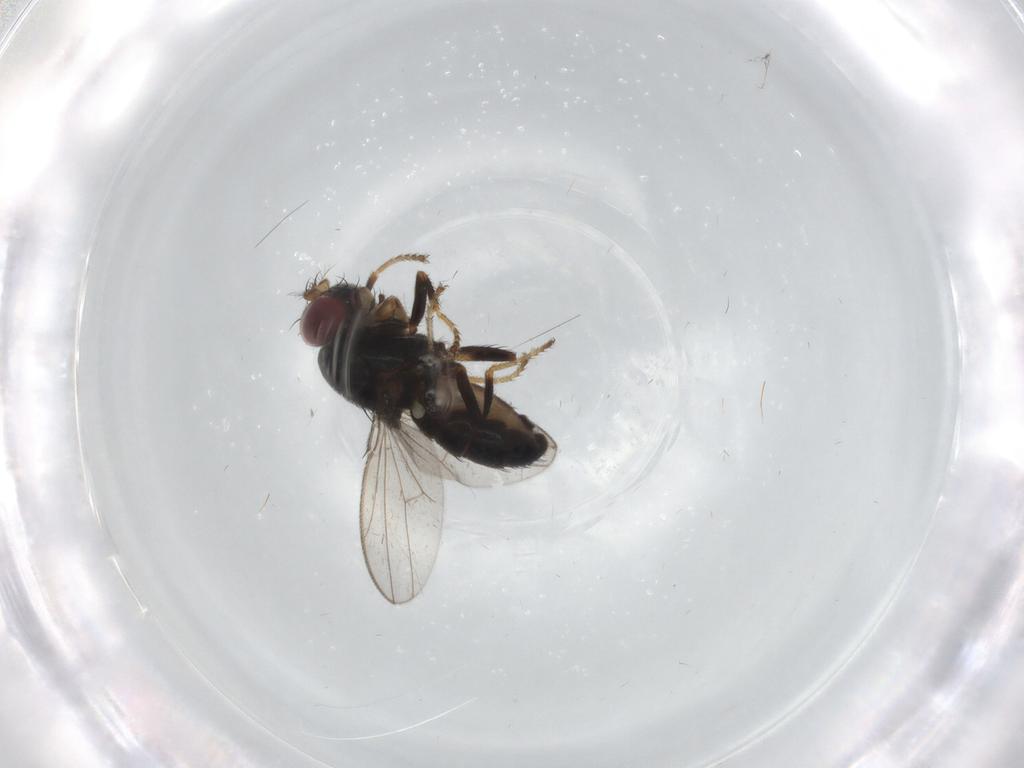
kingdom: Animalia
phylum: Arthropoda
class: Insecta
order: Diptera
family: Ephydridae
